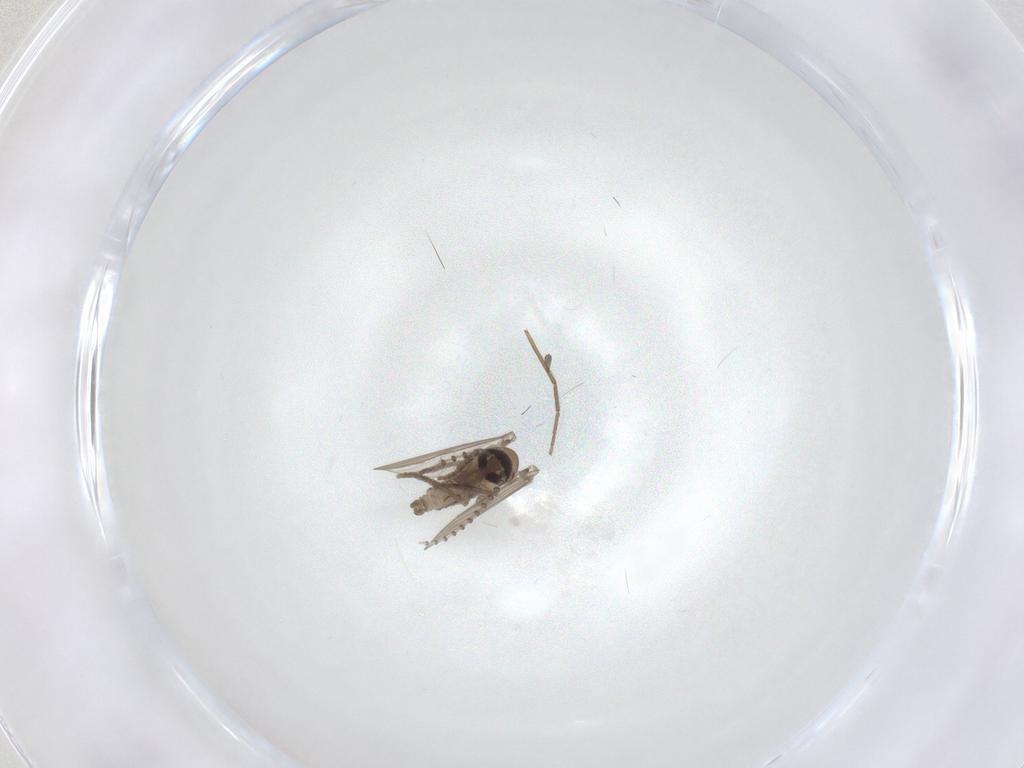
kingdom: Animalia
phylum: Arthropoda
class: Insecta
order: Diptera
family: Psychodidae
